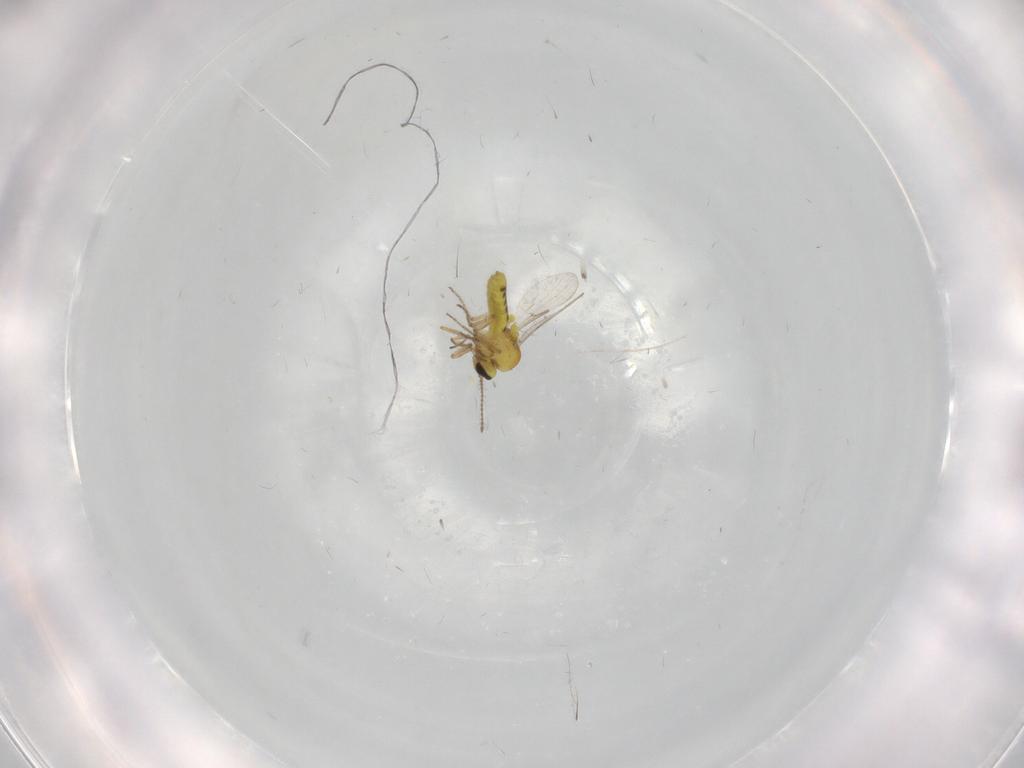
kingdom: Animalia
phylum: Arthropoda
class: Insecta
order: Diptera
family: Ceratopogonidae
